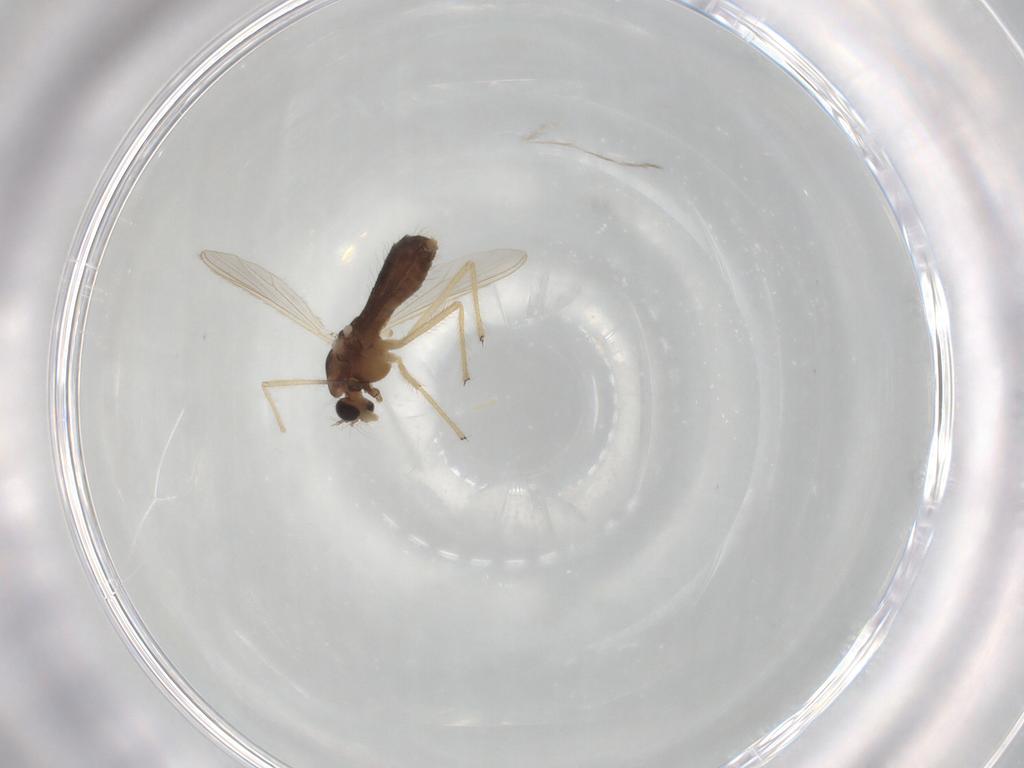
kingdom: Animalia
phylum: Arthropoda
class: Insecta
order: Diptera
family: Chironomidae
